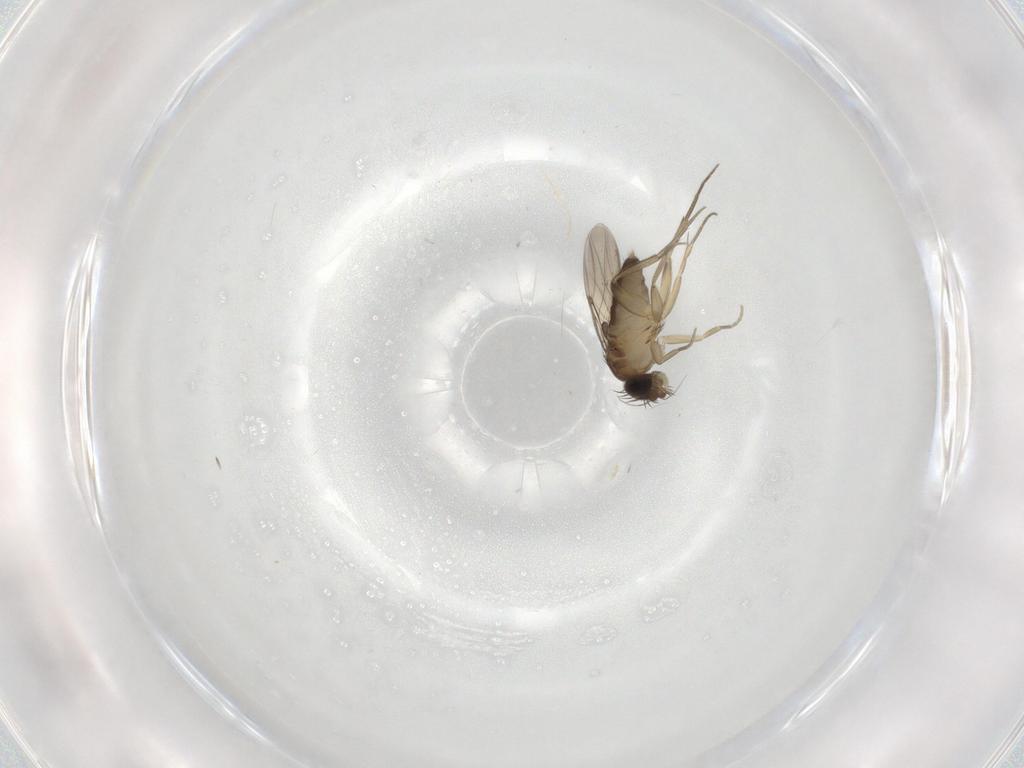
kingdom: Animalia
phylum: Arthropoda
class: Insecta
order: Diptera
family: Phoridae
